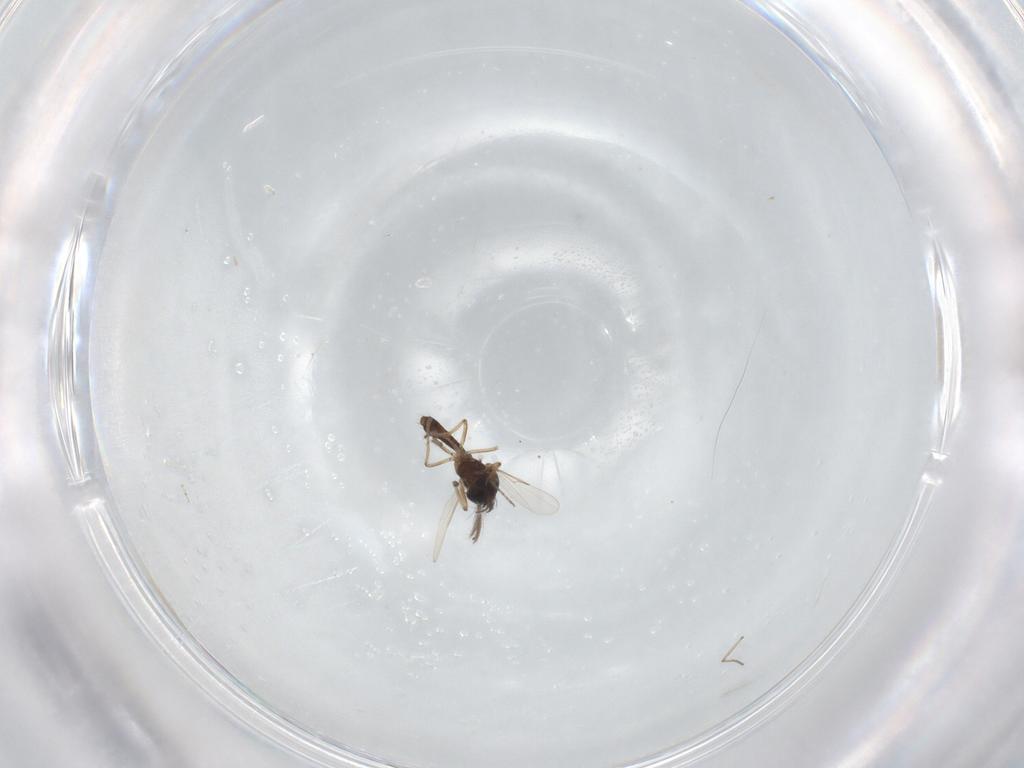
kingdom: Animalia
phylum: Arthropoda
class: Insecta
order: Diptera
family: Ceratopogonidae
